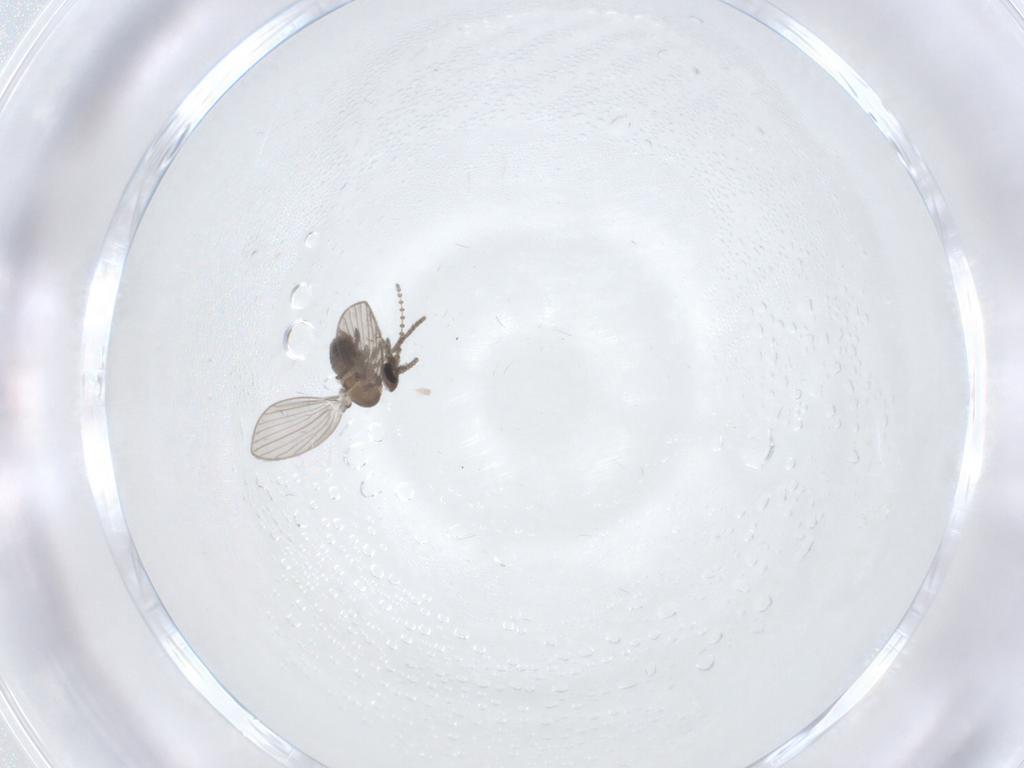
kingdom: Animalia
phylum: Arthropoda
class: Insecta
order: Diptera
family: Psychodidae
